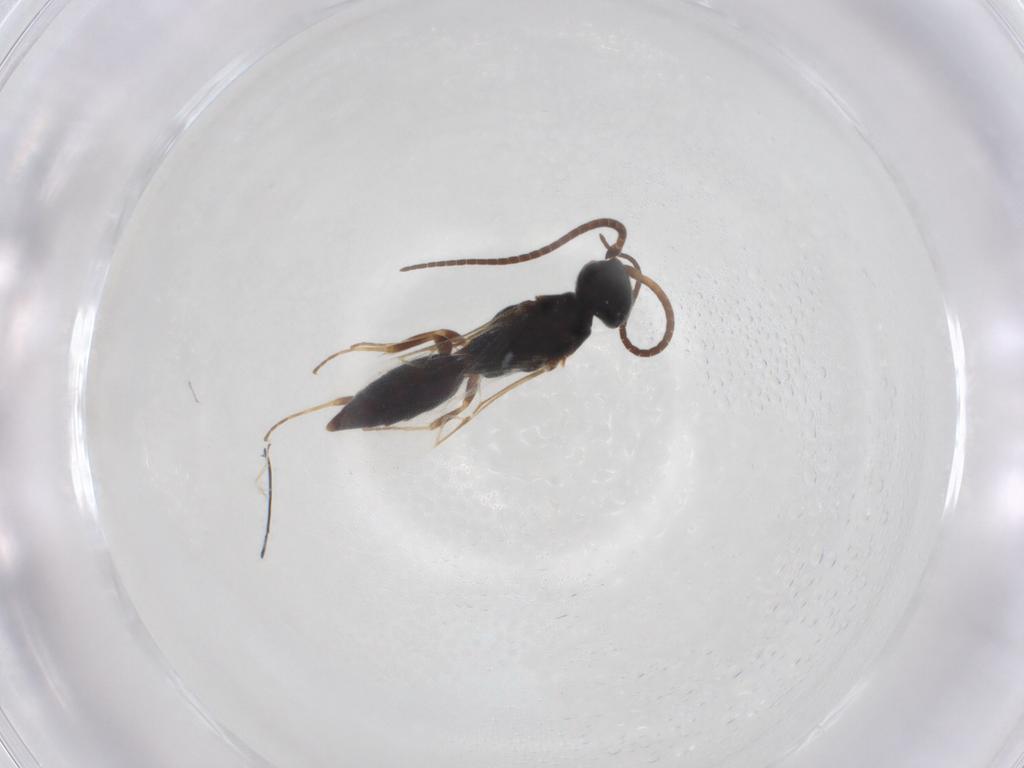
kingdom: Animalia
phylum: Arthropoda
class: Insecta
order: Hymenoptera
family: Sclerogibbidae
